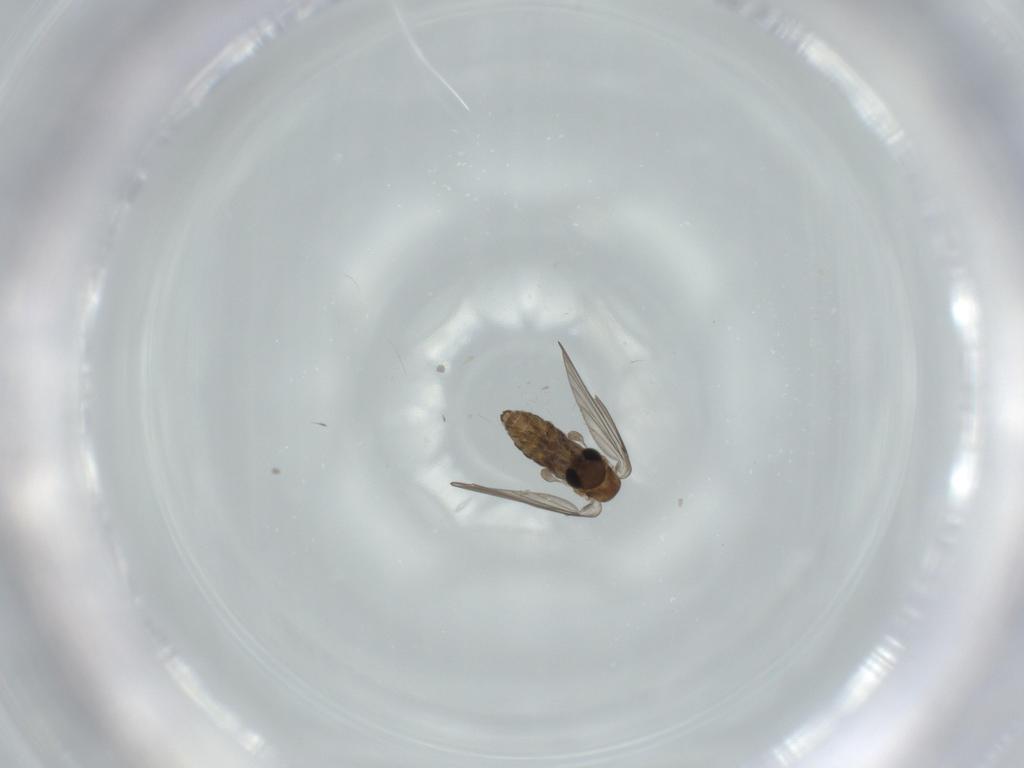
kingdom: Animalia
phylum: Arthropoda
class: Insecta
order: Diptera
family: Psychodidae
